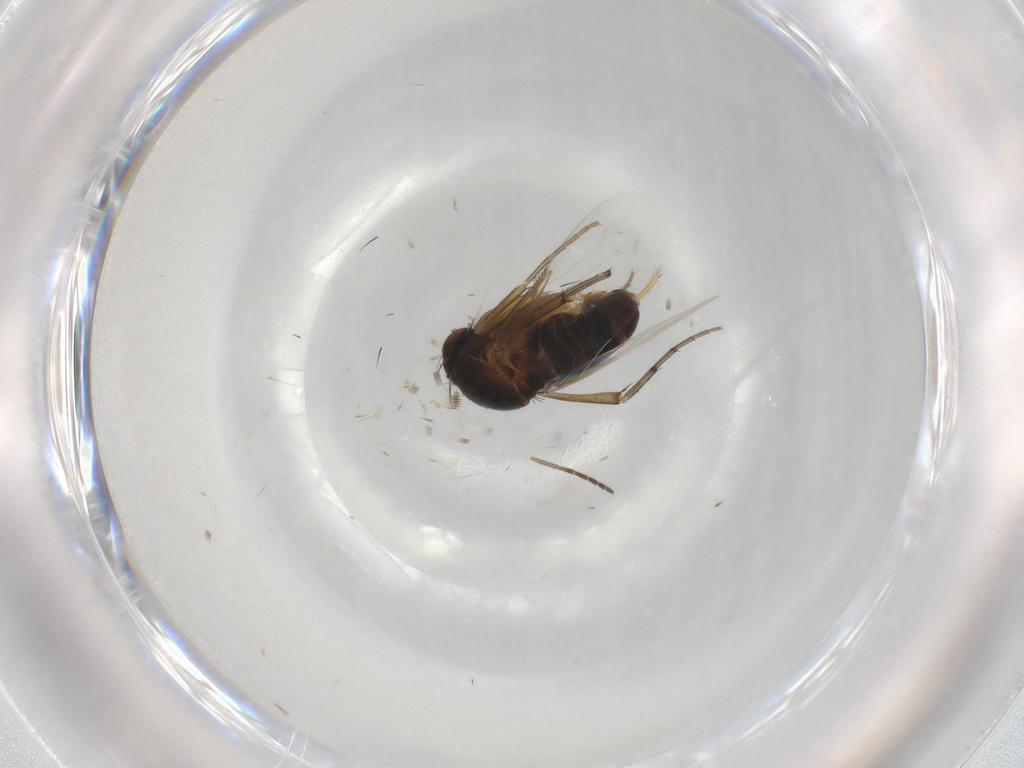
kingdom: Animalia
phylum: Arthropoda
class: Insecta
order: Diptera
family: Phoridae
